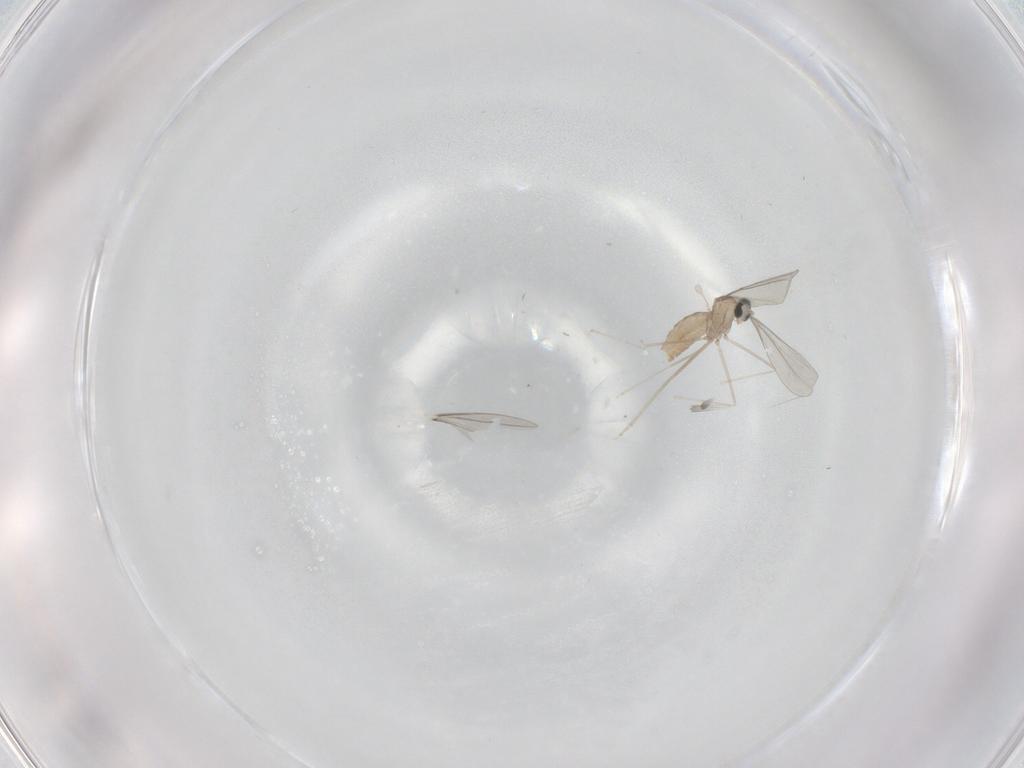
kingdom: Animalia
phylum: Arthropoda
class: Insecta
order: Diptera
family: Cecidomyiidae
